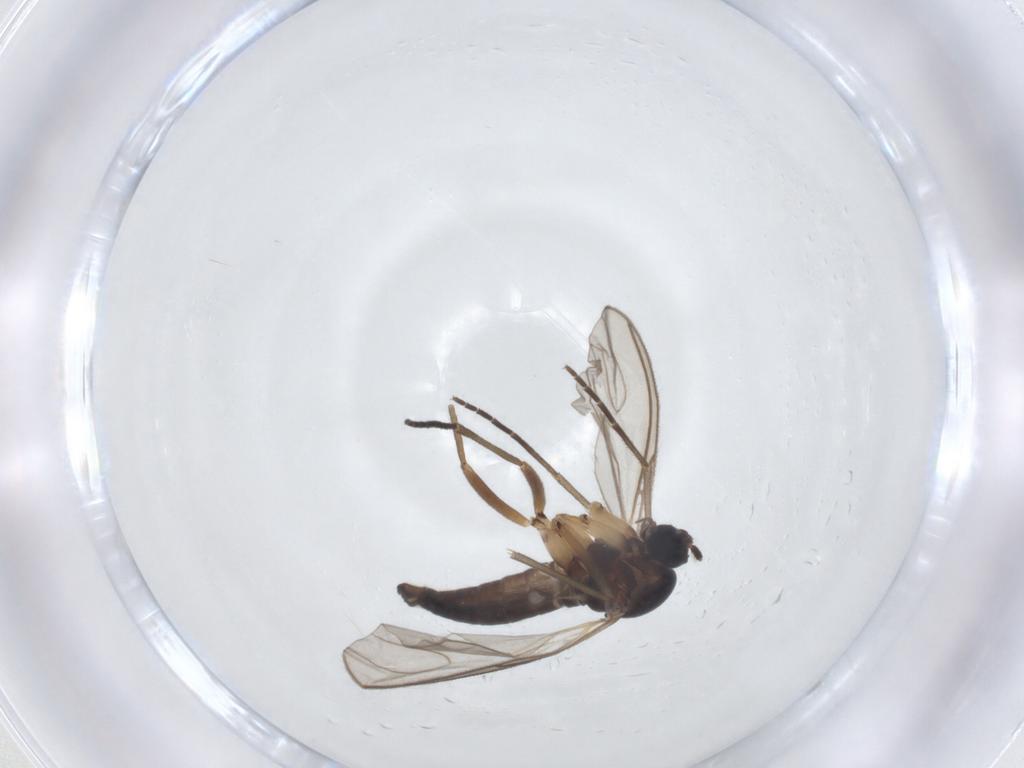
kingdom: Animalia
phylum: Arthropoda
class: Insecta
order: Diptera
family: Sciaridae
